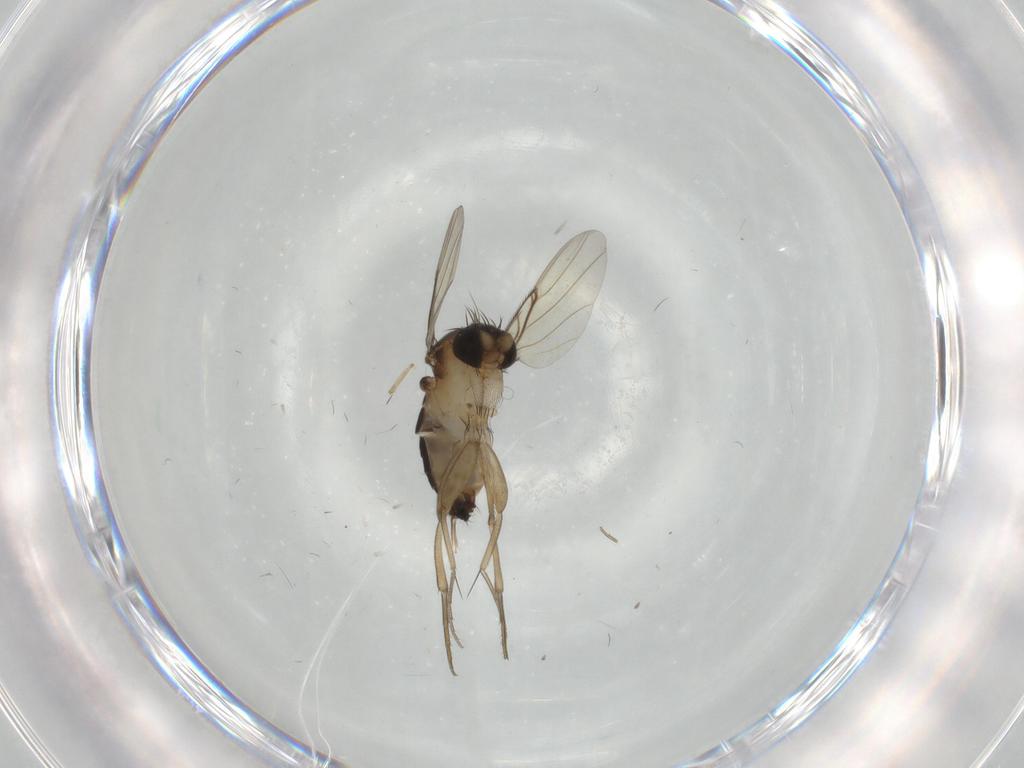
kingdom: Animalia
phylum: Arthropoda
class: Insecta
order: Diptera
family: Phoridae
